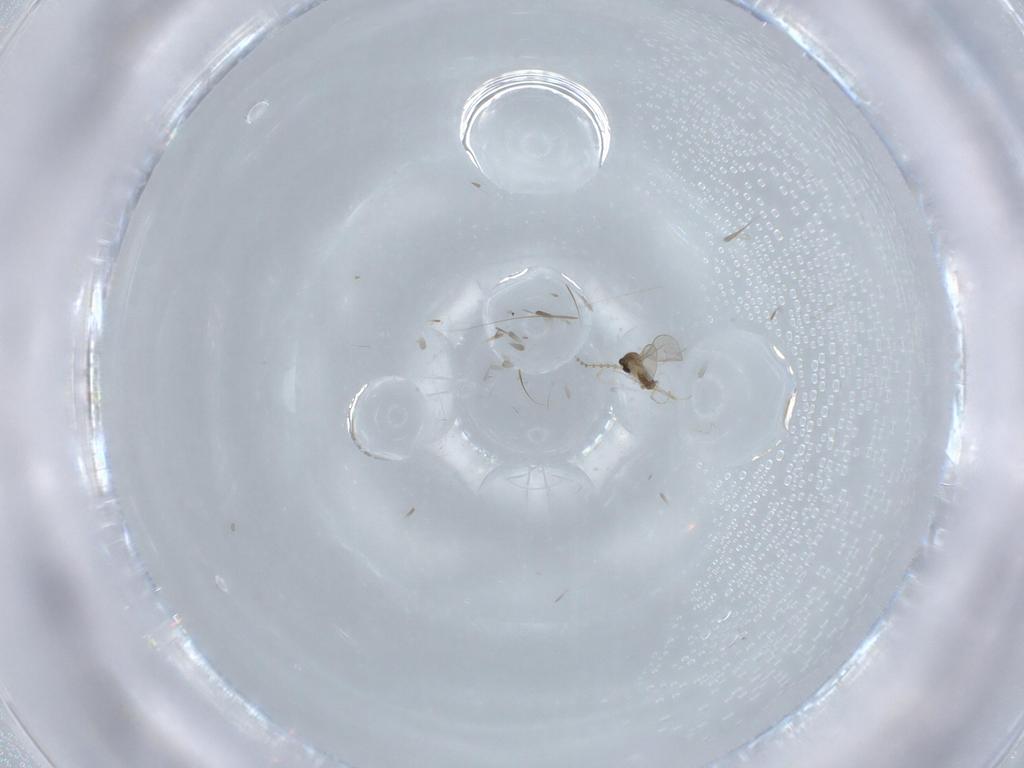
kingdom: Animalia
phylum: Arthropoda
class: Insecta
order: Diptera
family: Cecidomyiidae
